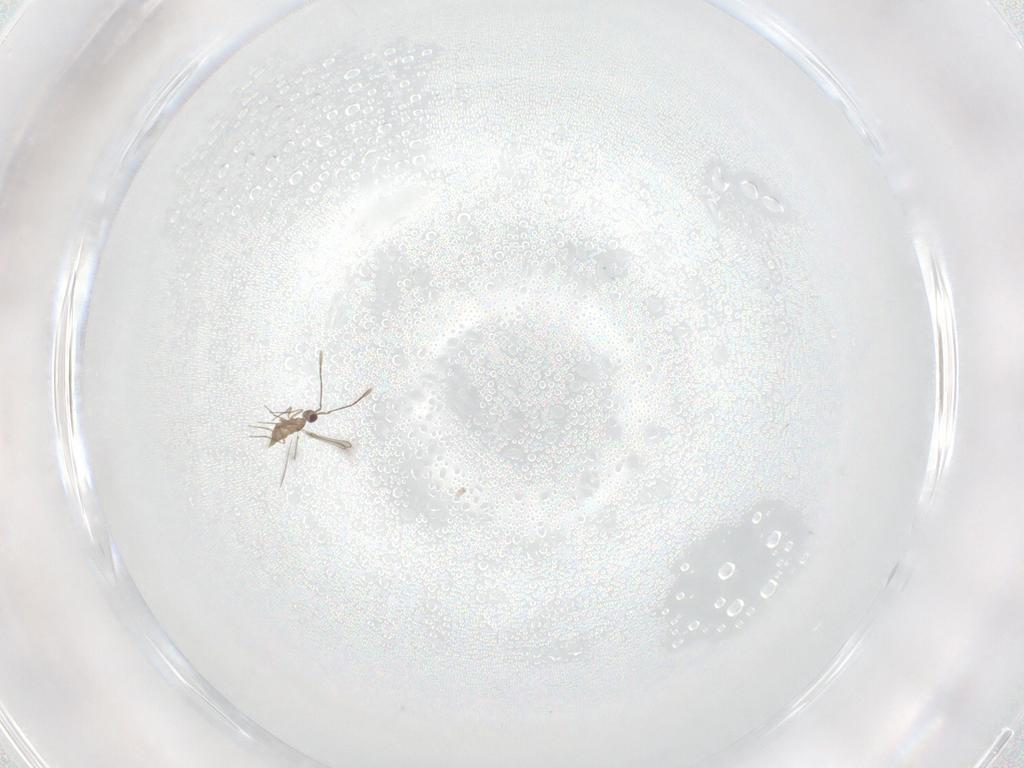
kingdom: Animalia
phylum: Arthropoda
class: Insecta
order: Hymenoptera
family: Mymaridae
